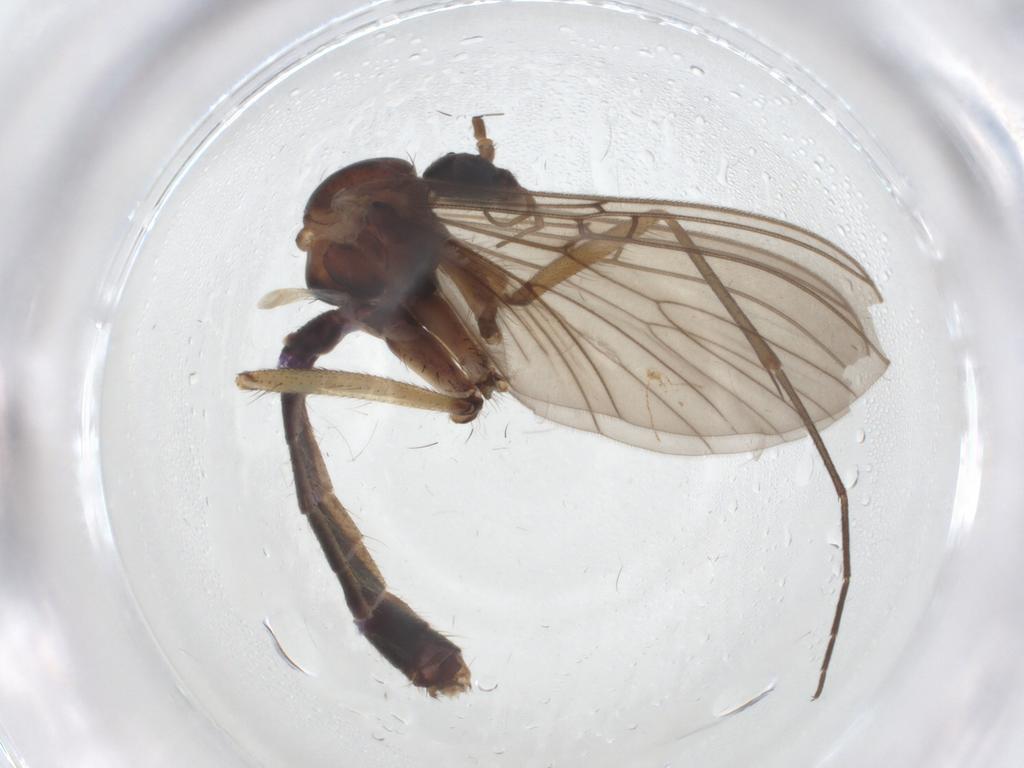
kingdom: Animalia
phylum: Arthropoda
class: Insecta
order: Diptera
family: Mycetophilidae
